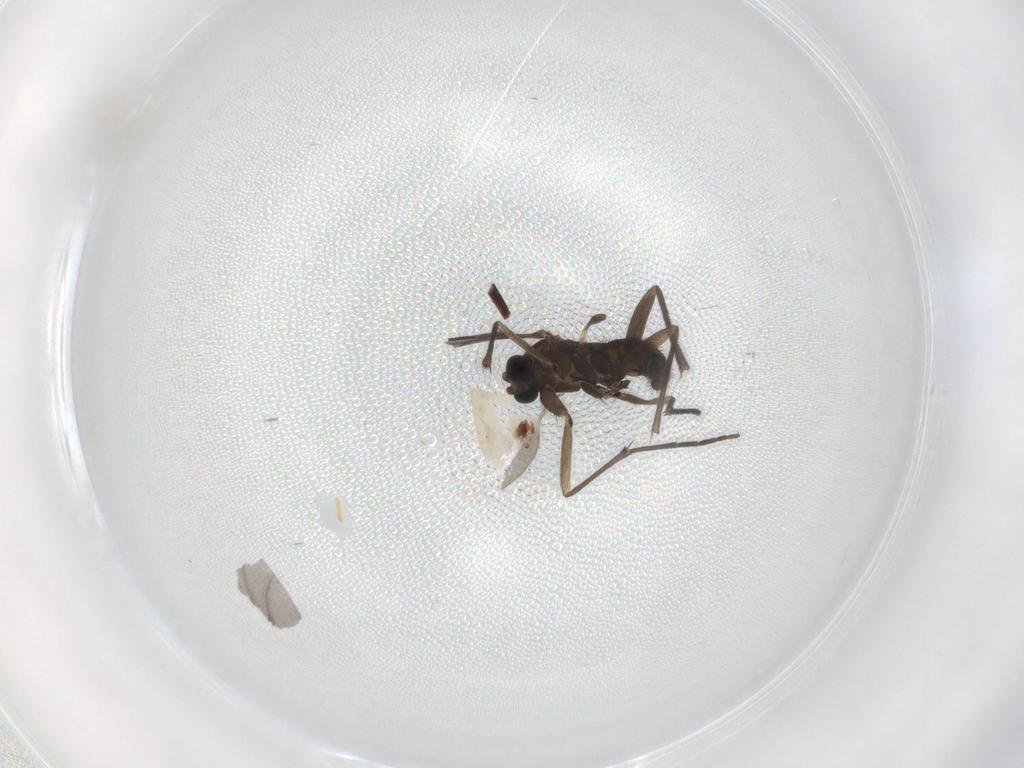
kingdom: Animalia
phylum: Arthropoda
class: Insecta
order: Diptera
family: Sciaridae
